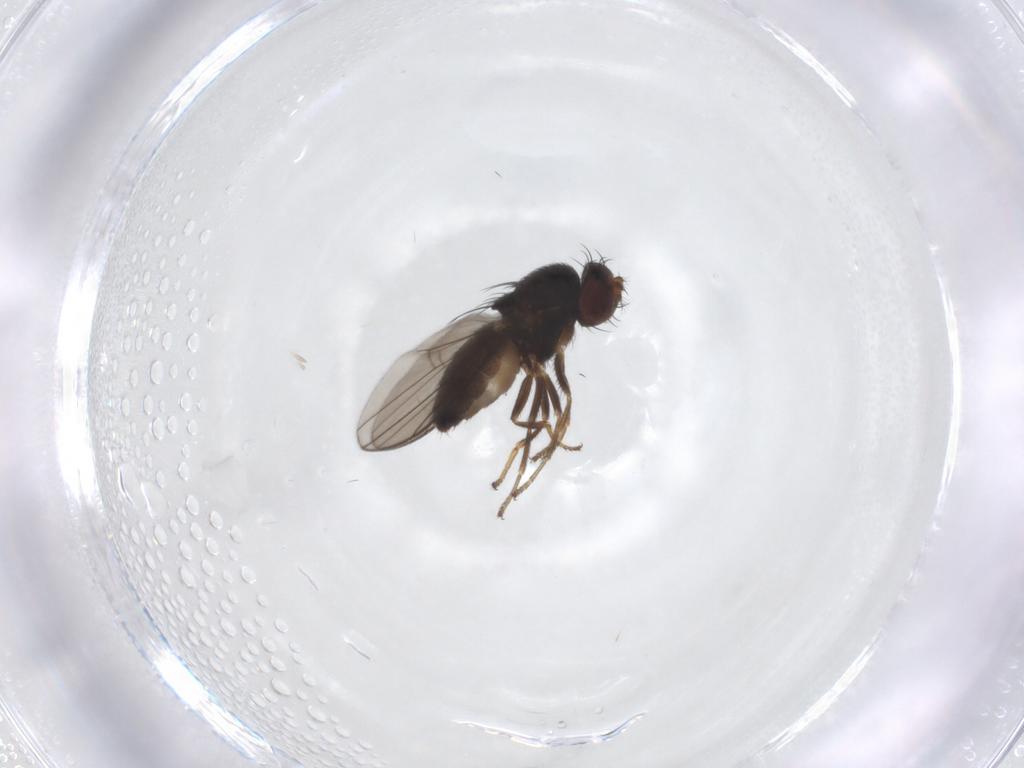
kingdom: Animalia
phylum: Arthropoda
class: Insecta
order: Diptera
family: Ephydridae
